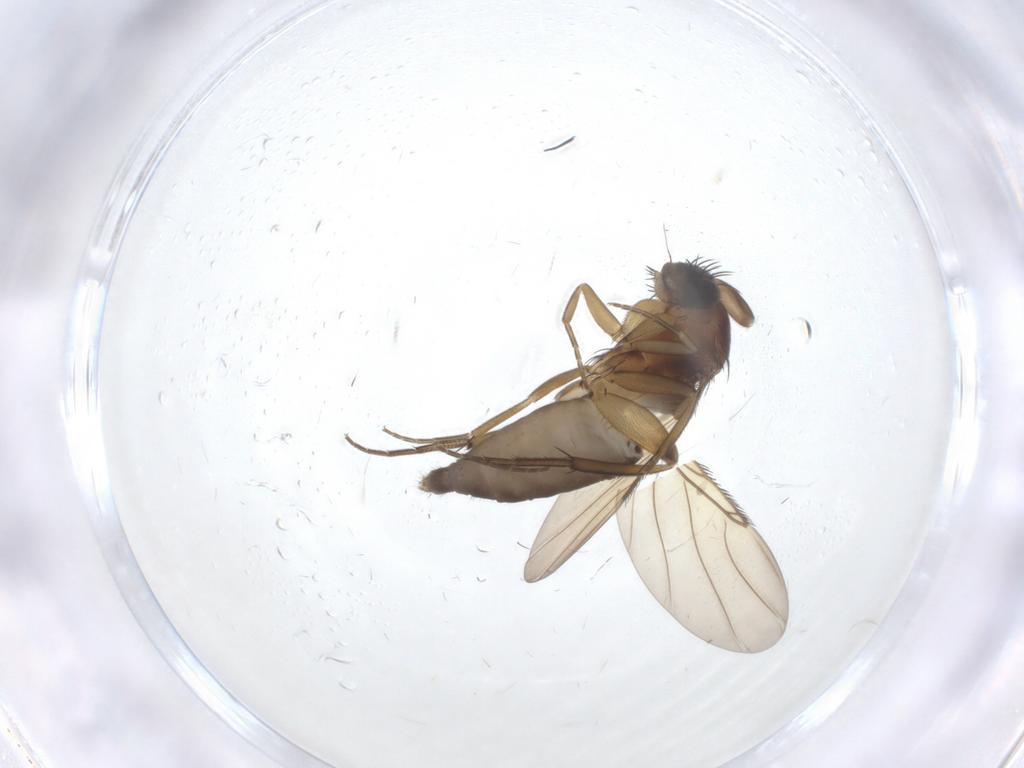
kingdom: Animalia
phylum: Arthropoda
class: Insecta
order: Diptera
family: Phoridae
